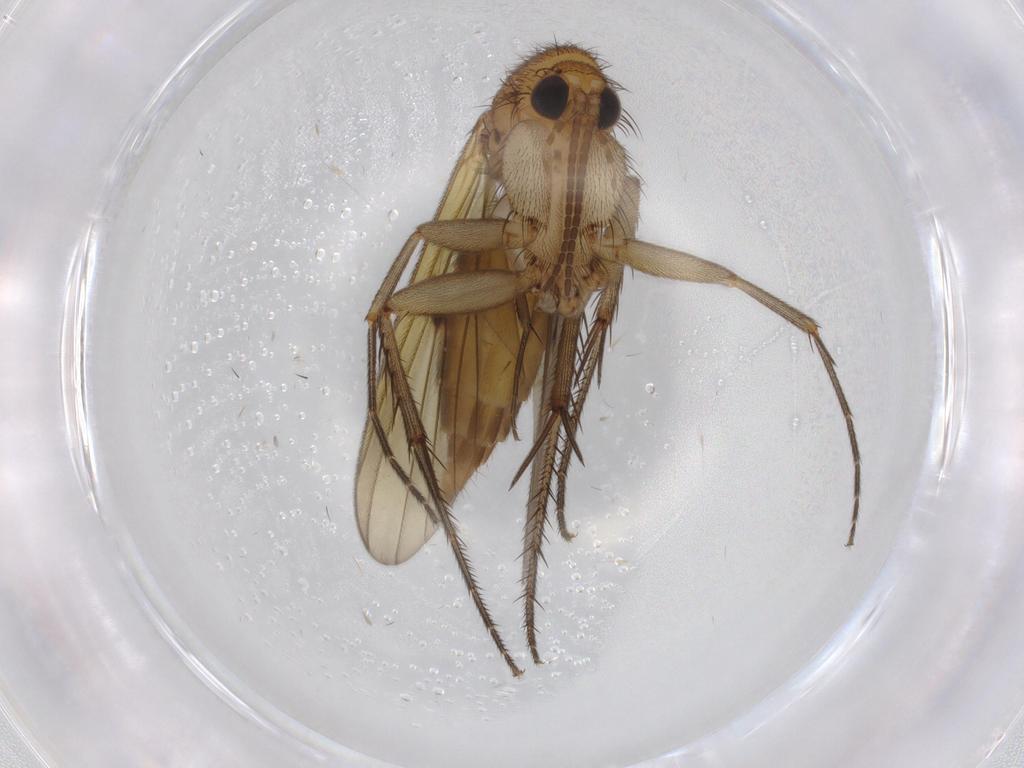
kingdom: Animalia
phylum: Arthropoda
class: Insecta
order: Diptera
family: Mycetophilidae
